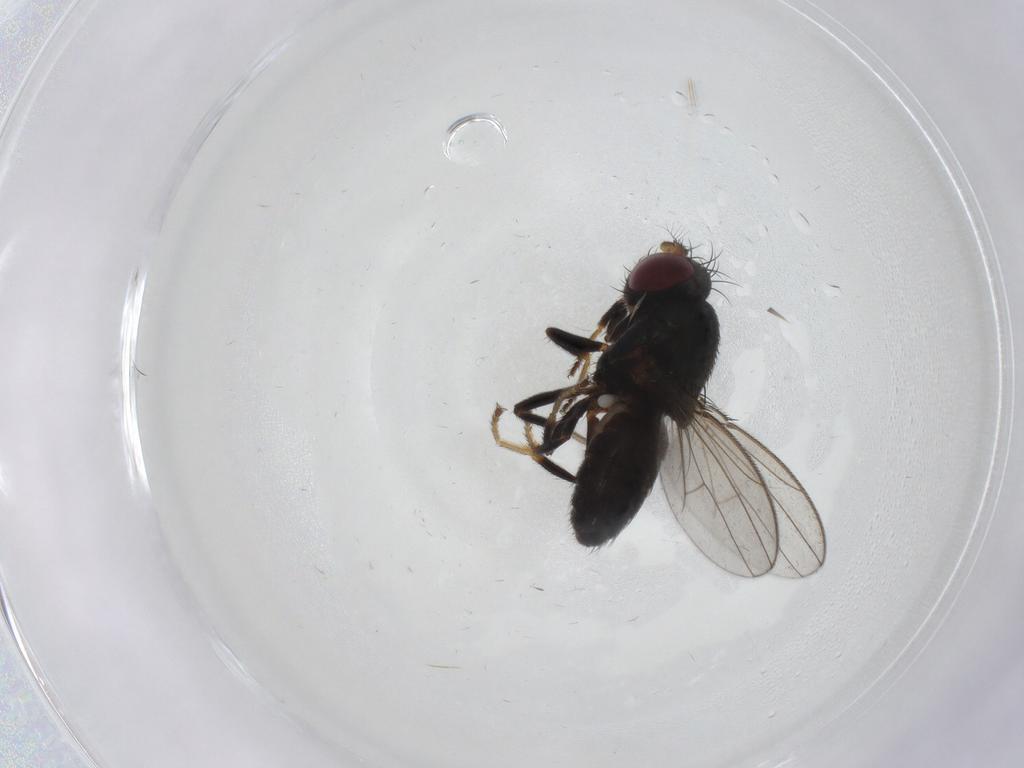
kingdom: Animalia
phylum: Arthropoda
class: Insecta
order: Diptera
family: Ephydridae
